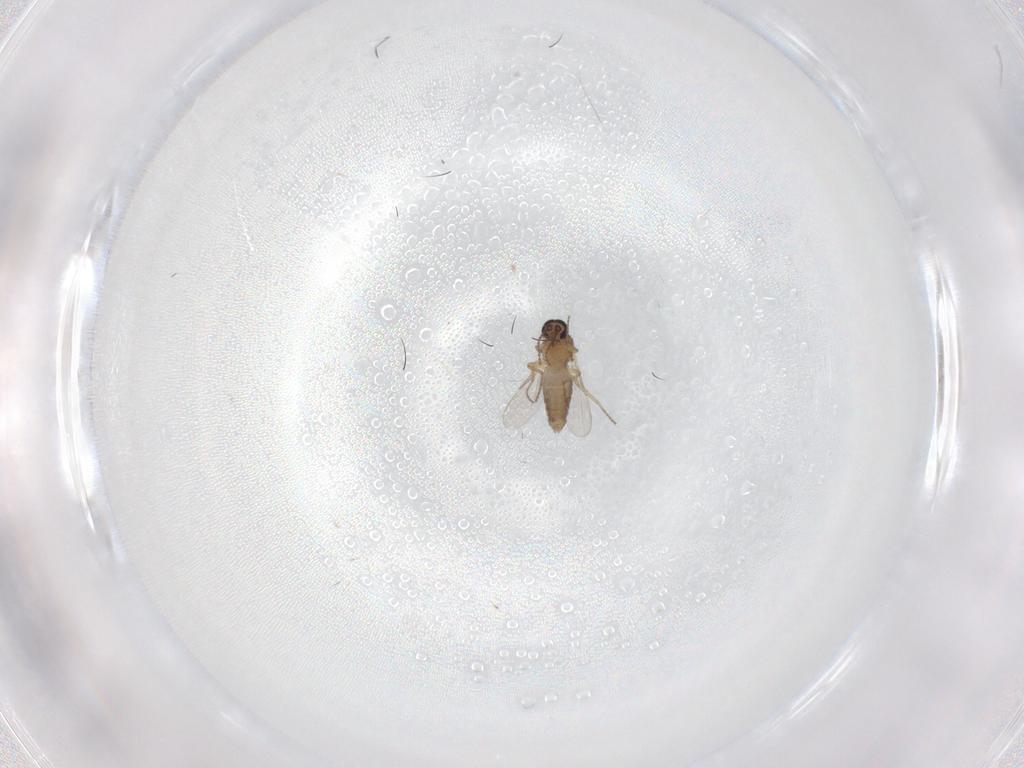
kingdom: Animalia
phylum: Arthropoda
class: Insecta
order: Diptera
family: Ceratopogonidae
